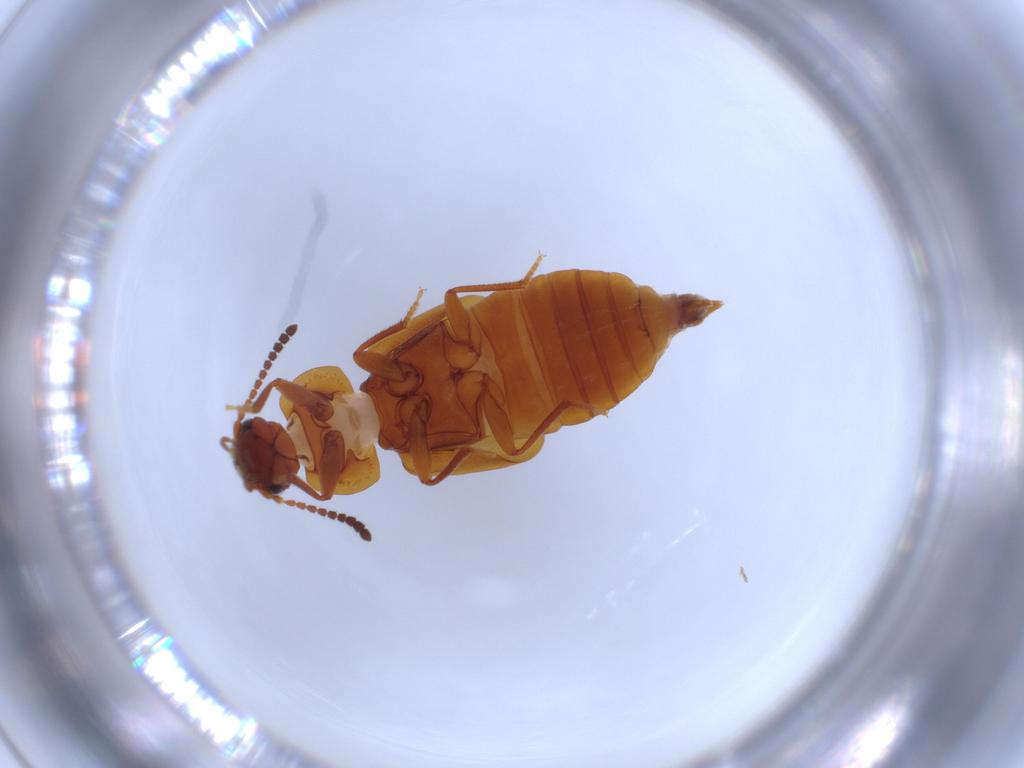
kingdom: Animalia
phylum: Arthropoda
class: Insecta
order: Coleoptera
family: Staphylinidae
